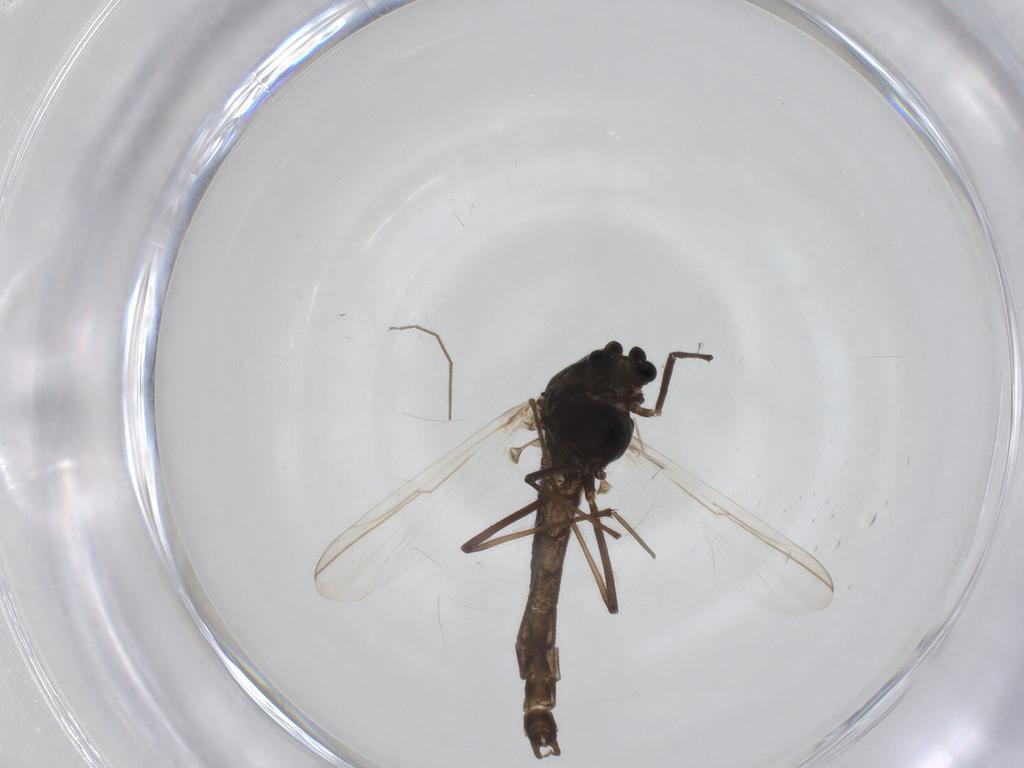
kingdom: Animalia
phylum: Arthropoda
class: Insecta
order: Diptera
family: Chironomidae
